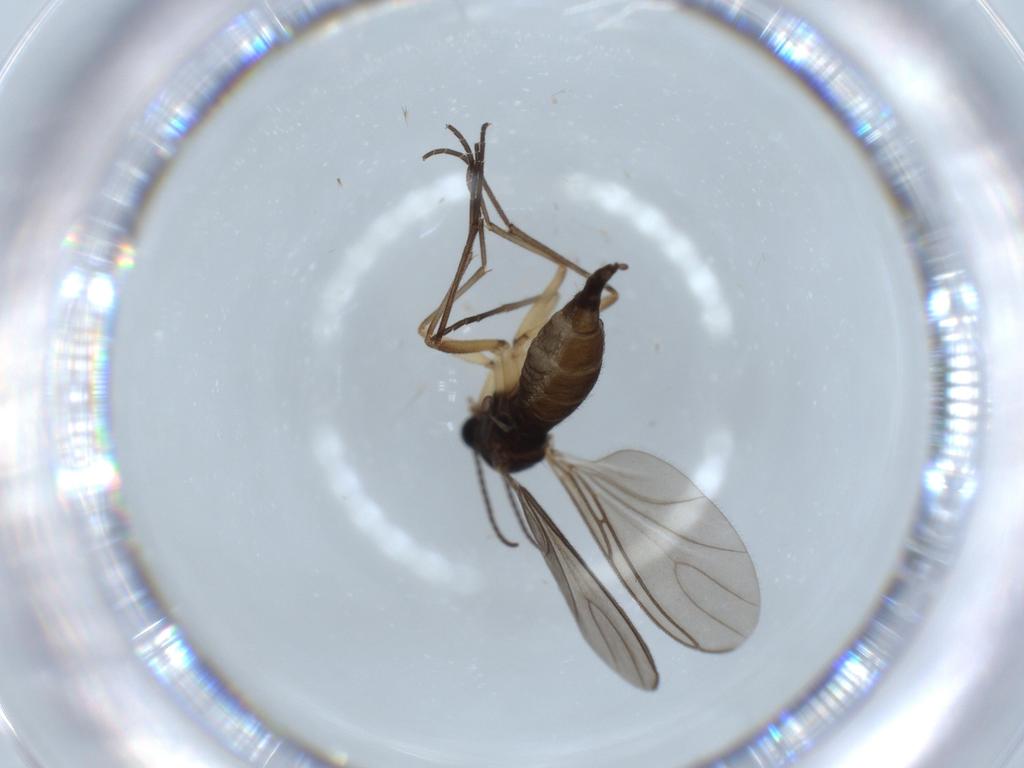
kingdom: Animalia
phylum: Arthropoda
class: Insecta
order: Diptera
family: Sciaridae
